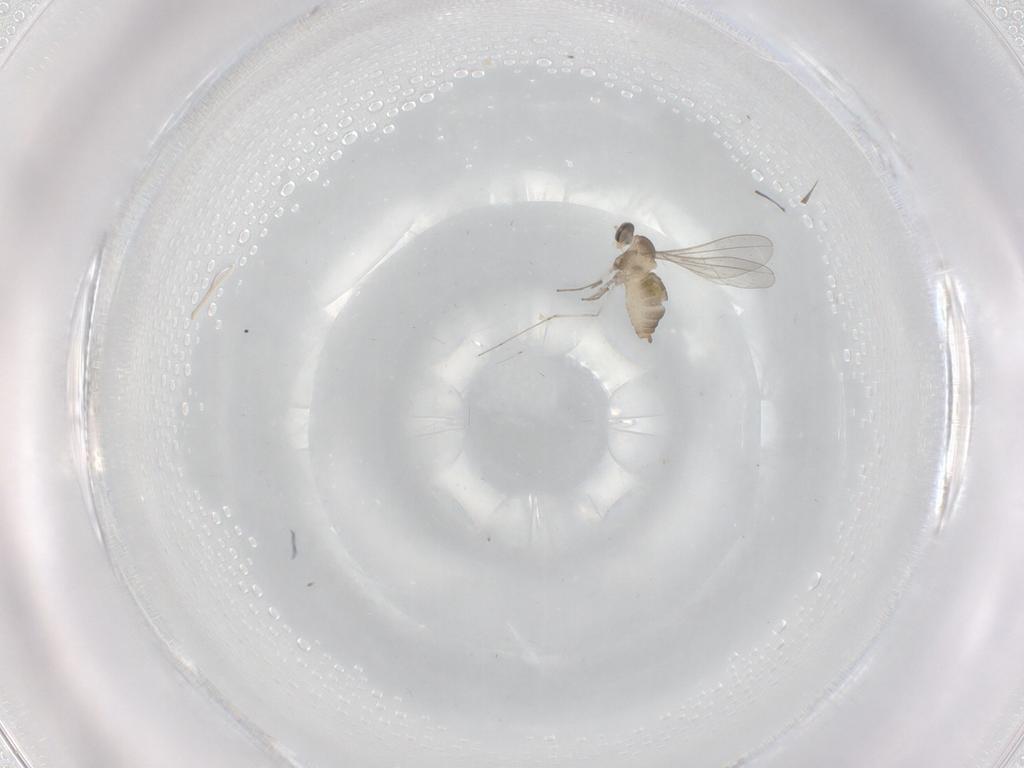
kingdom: Animalia
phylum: Arthropoda
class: Insecta
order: Diptera
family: Cecidomyiidae
